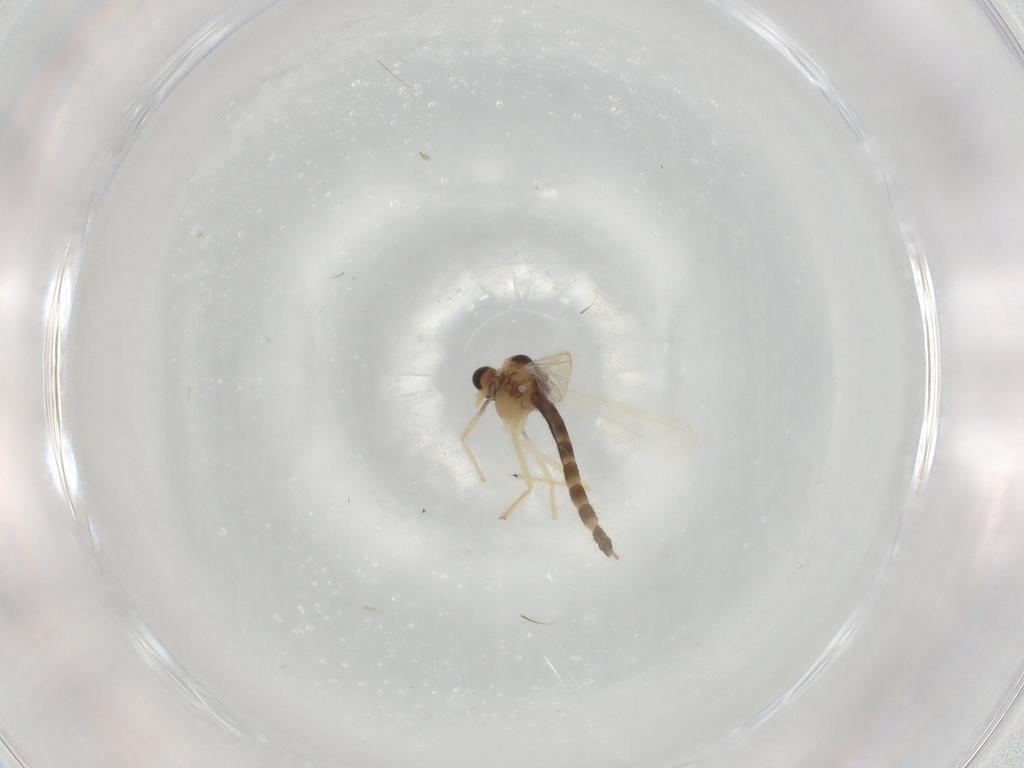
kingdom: Animalia
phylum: Arthropoda
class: Insecta
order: Diptera
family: Chironomidae
